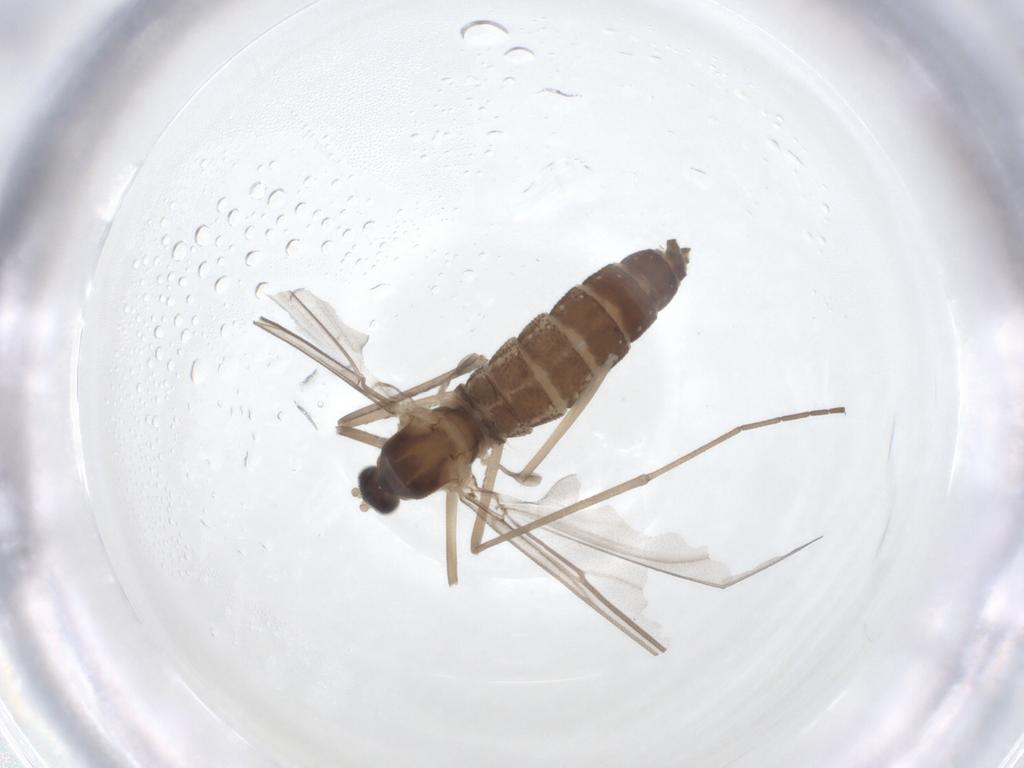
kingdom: Animalia
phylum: Arthropoda
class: Insecta
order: Diptera
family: Cecidomyiidae
